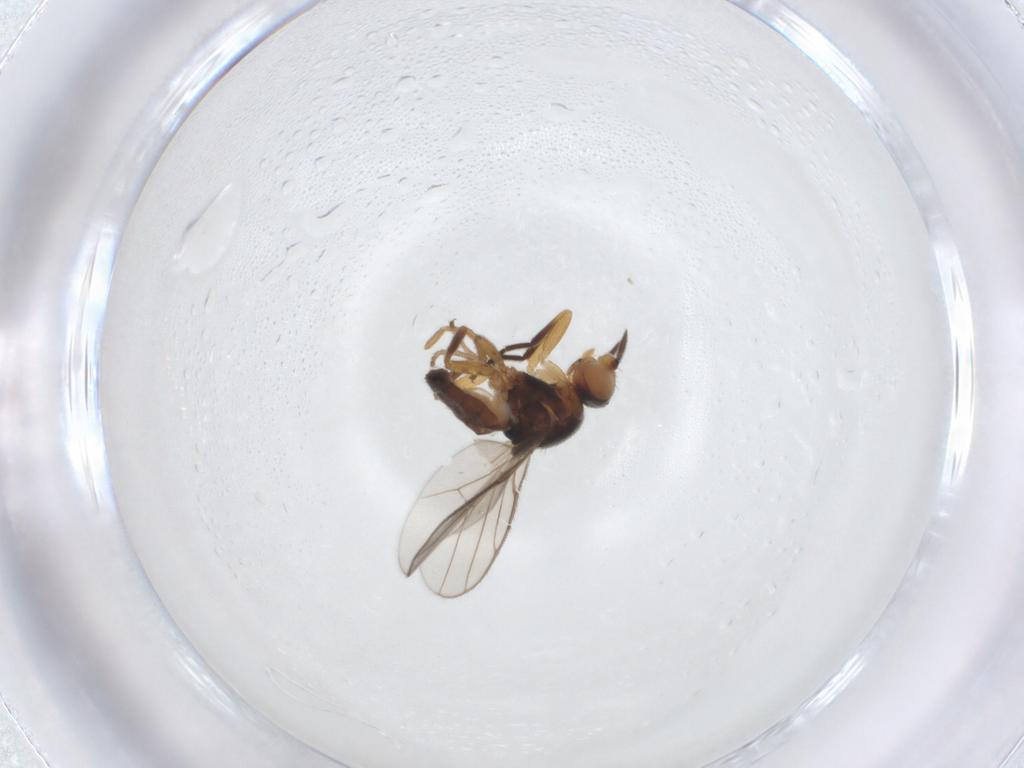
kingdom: Animalia
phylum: Arthropoda
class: Insecta
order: Diptera
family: Chloropidae
